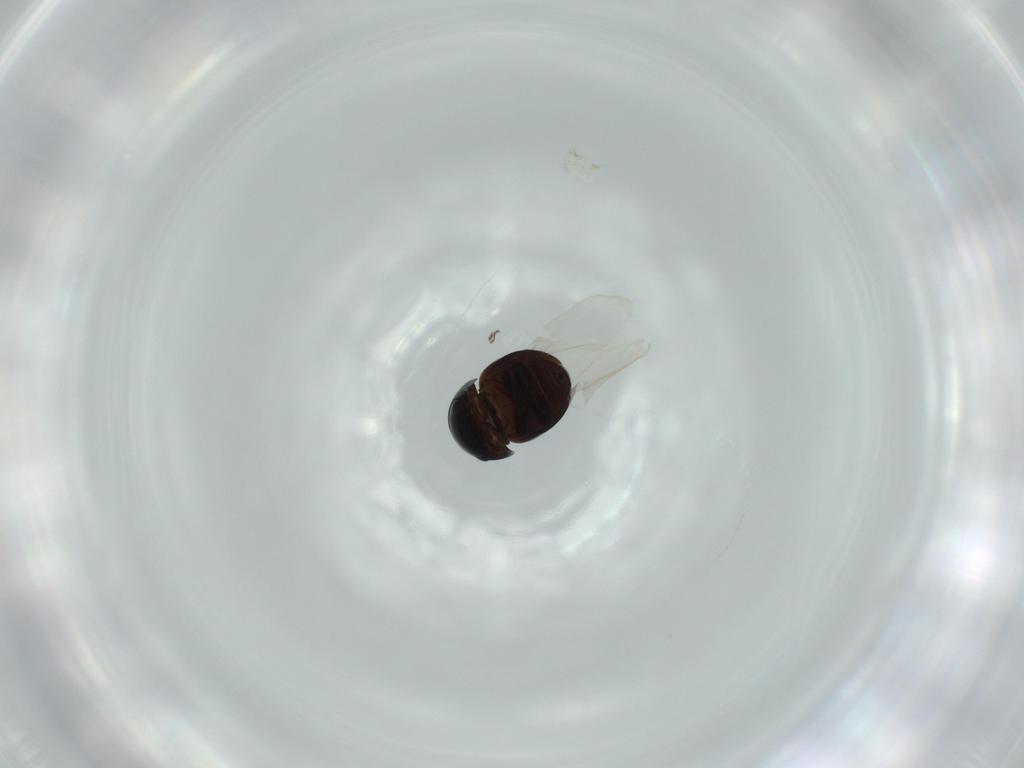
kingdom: Animalia
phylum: Arthropoda
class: Insecta
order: Coleoptera
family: Cybocephalidae
